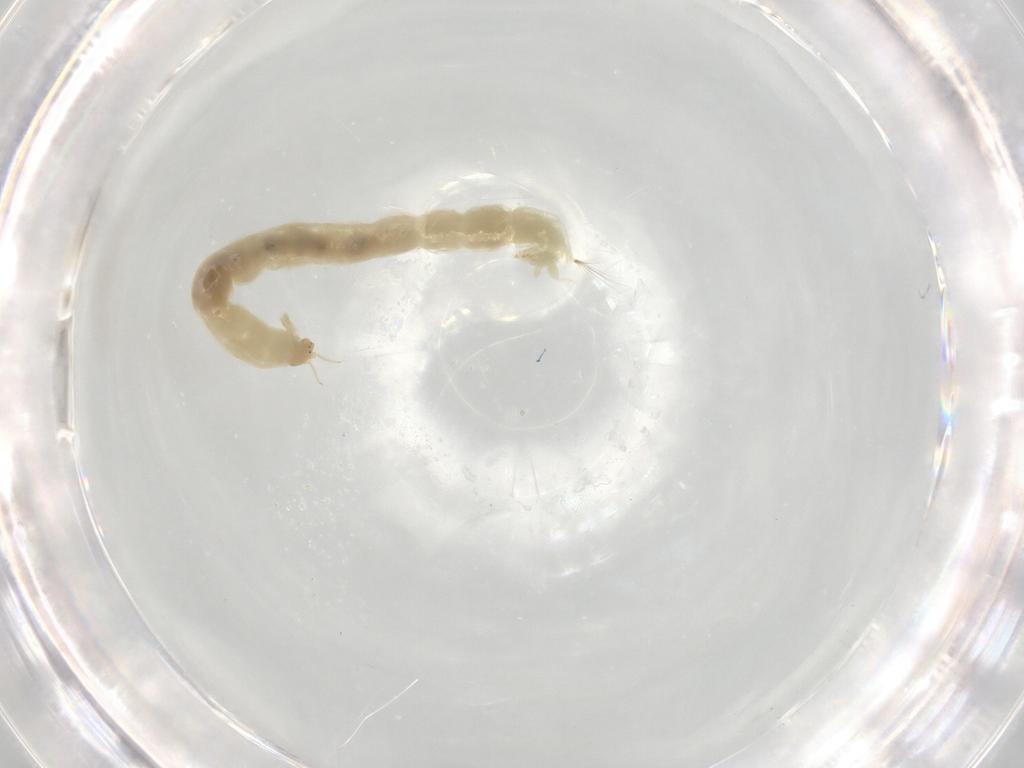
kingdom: Animalia
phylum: Arthropoda
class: Insecta
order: Diptera
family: Chironomidae
